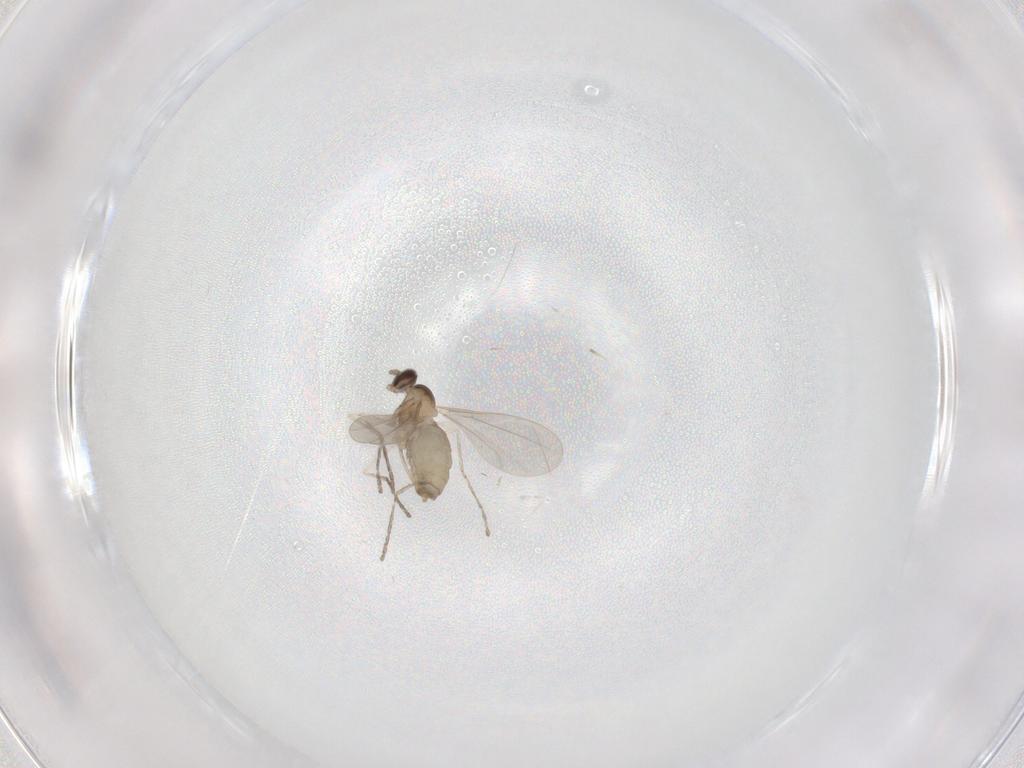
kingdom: Animalia
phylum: Arthropoda
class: Insecta
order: Diptera
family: Cecidomyiidae
